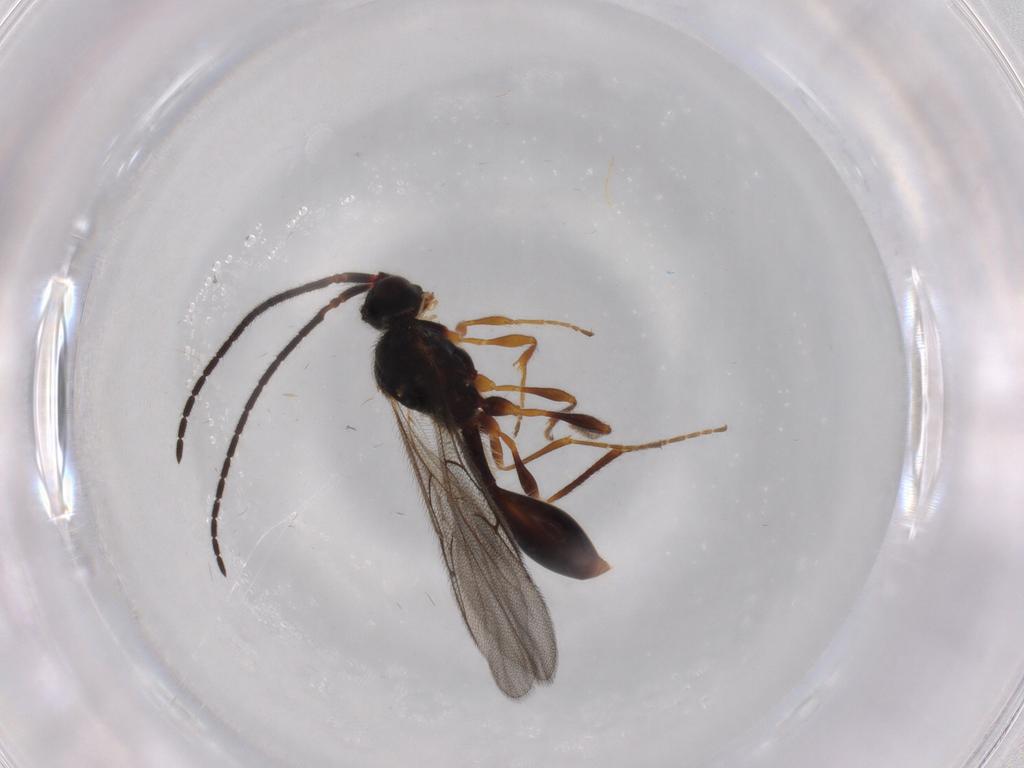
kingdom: Animalia
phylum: Arthropoda
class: Insecta
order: Hymenoptera
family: Diapriidae
